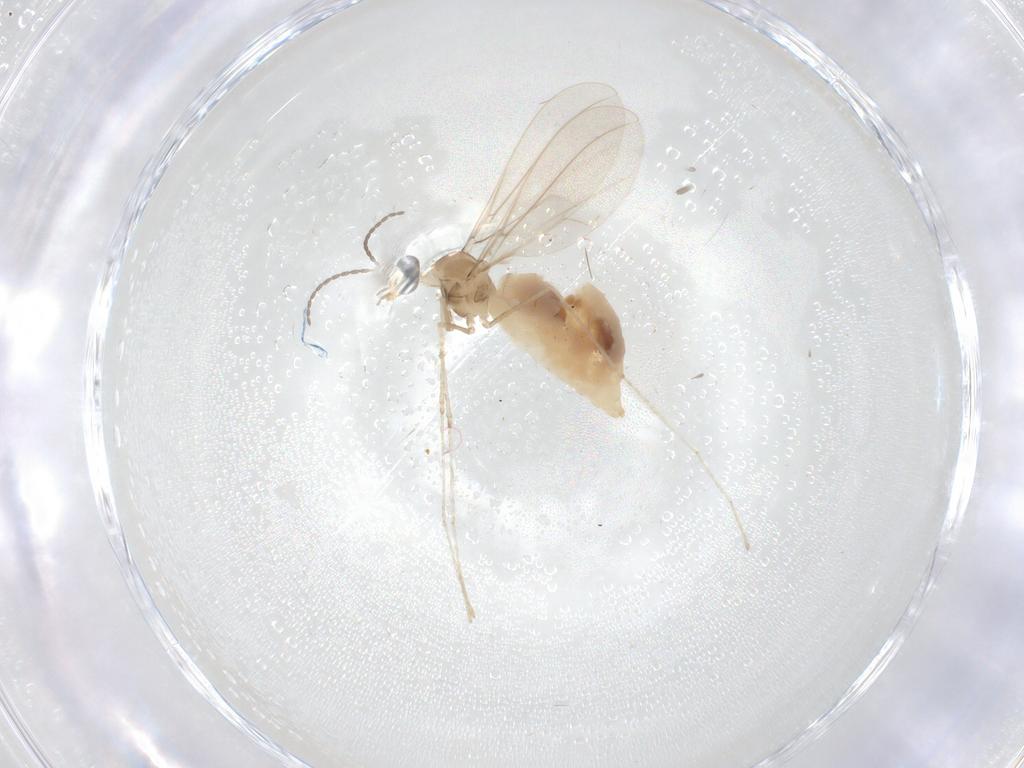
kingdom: Animalia
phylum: Arthropoda
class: Insecta
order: Diptera
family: Cecidomyiidae
